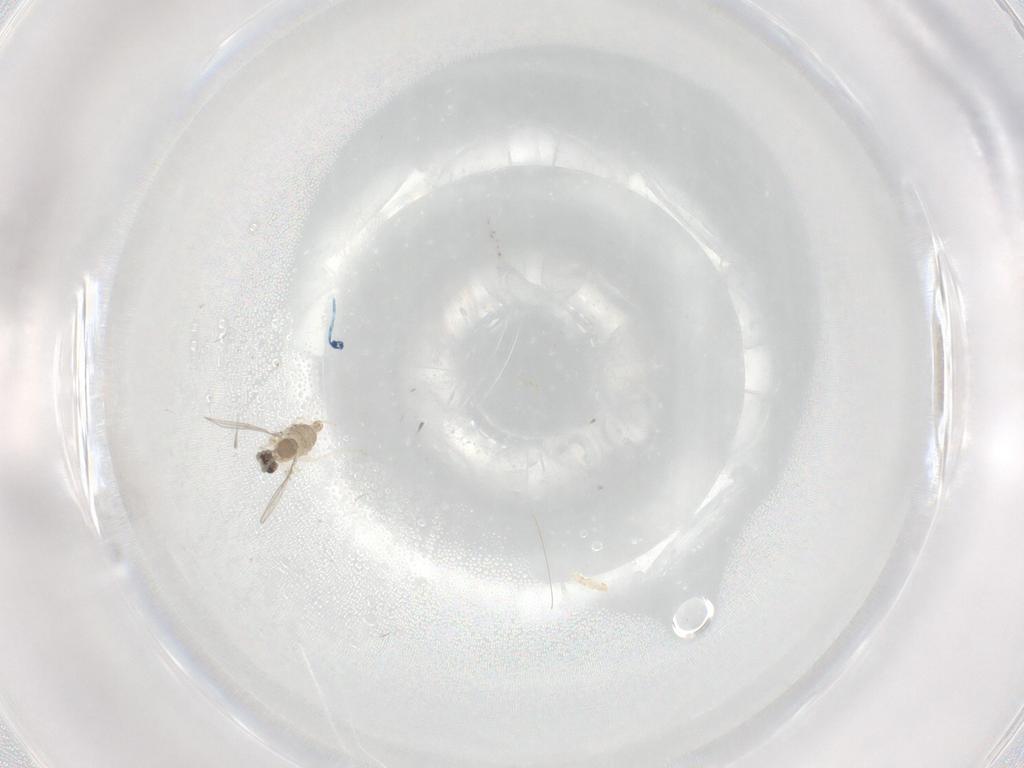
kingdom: Animalia
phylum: Arthropoda
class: Insecta
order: Diptera
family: Cecidomyiidae
